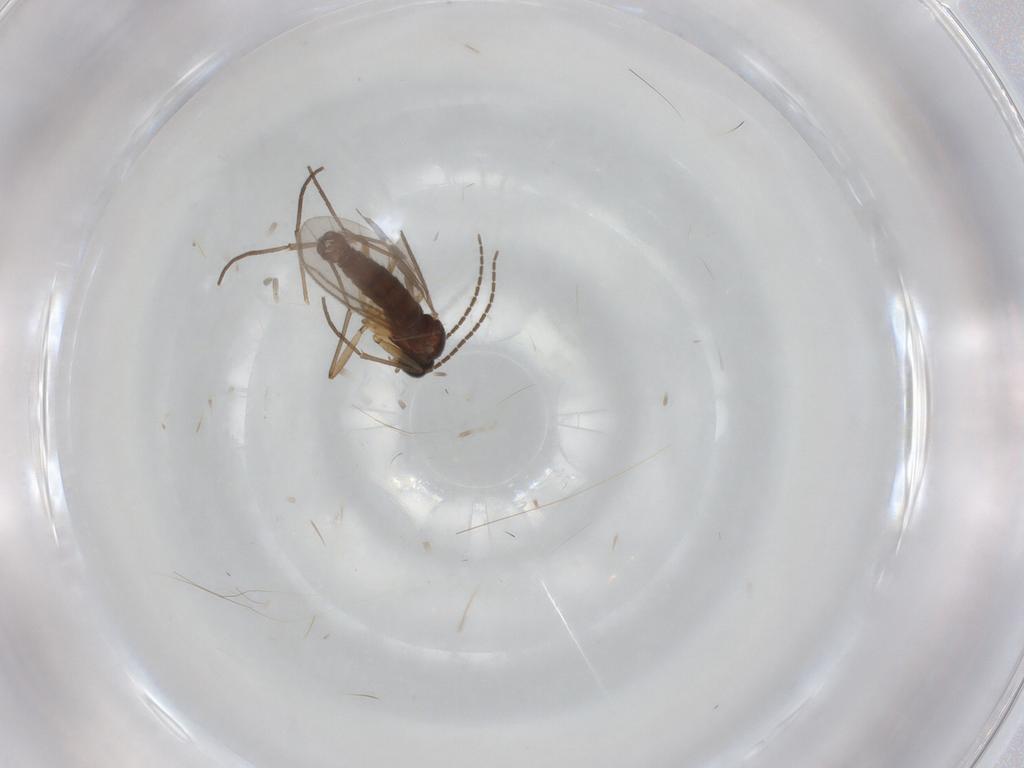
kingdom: Animalia
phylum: Arthropoda
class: Insecta
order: Diptera
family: Sciaridae
